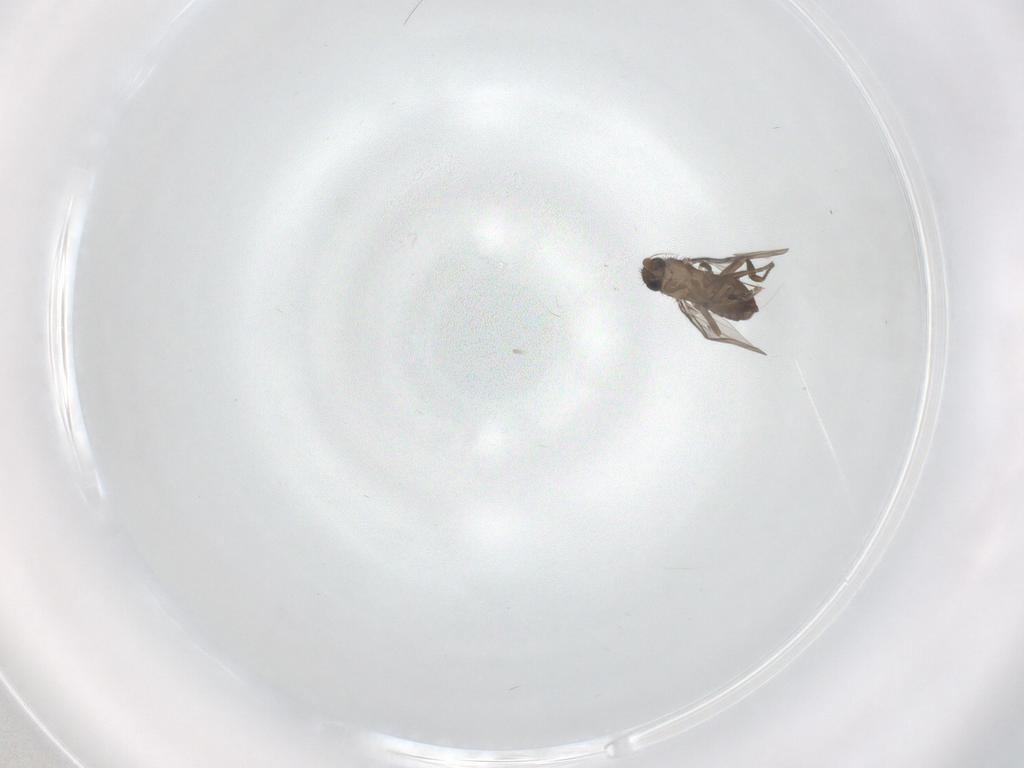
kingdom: Animalia
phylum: Arthropoda
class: Insecta
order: Diptera
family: Phoridae
